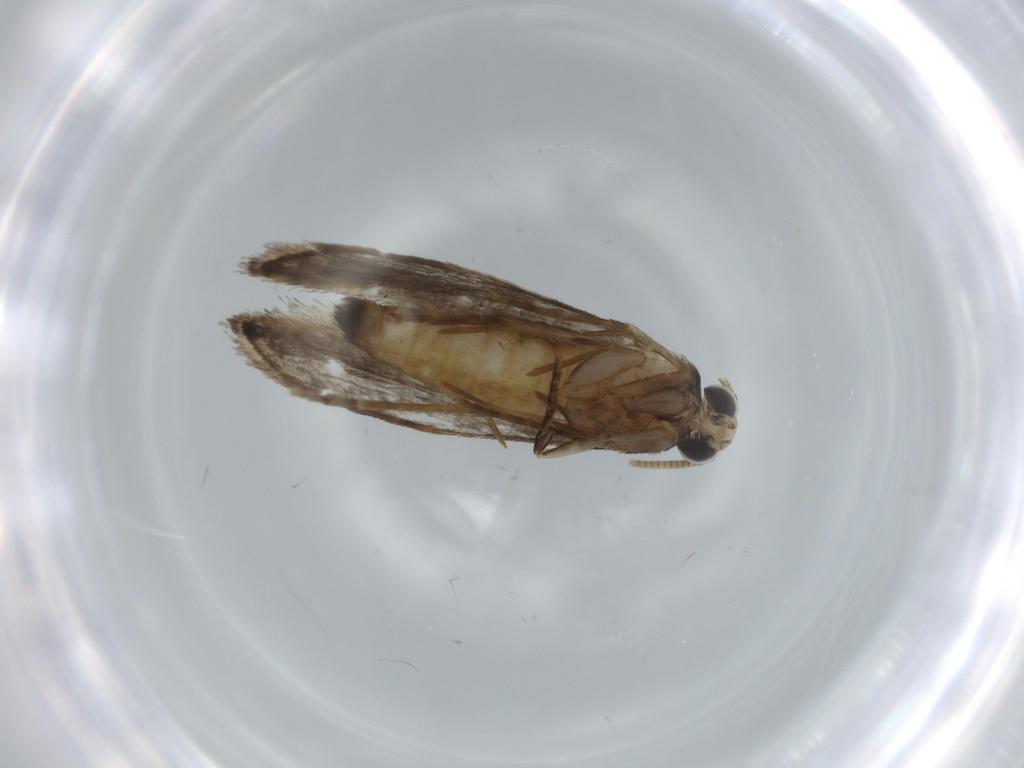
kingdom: Animalia
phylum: Arthropoda
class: Insecta
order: Lepidoptera
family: Tineidae
